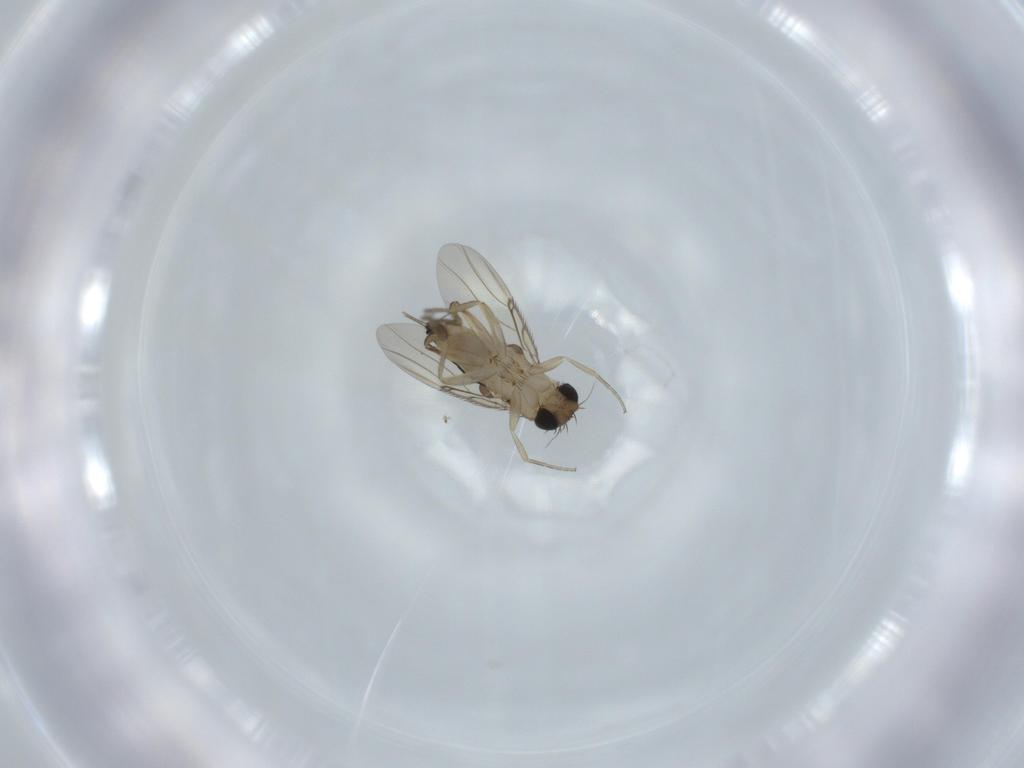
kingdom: Animalia
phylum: Arthropoda
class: Insecta
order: Diptera
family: Phoridae
